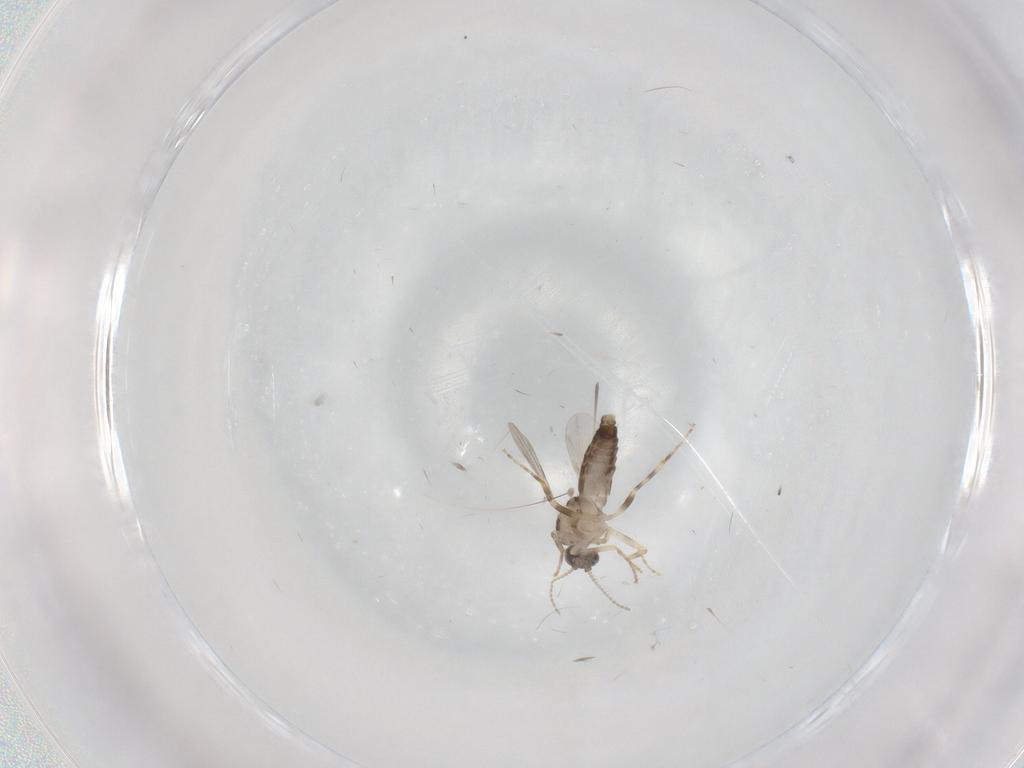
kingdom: Animalia
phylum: Arthropoda
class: Insecta
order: Diptera
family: Ceratopogonidae
